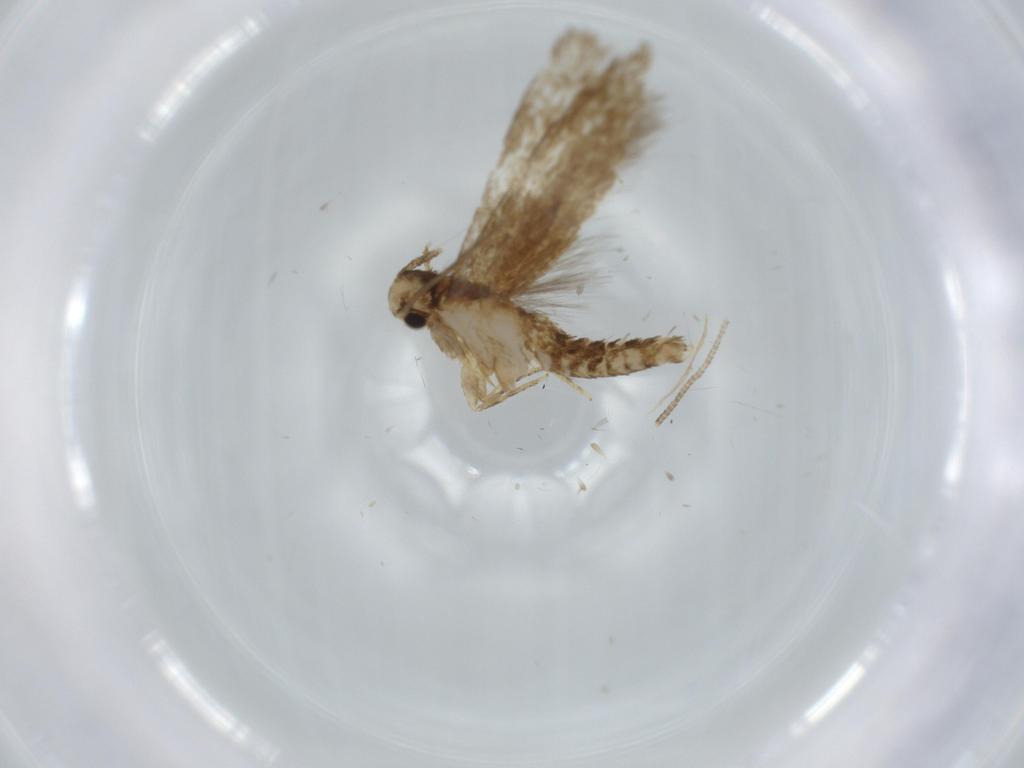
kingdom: Animalia
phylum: Arthropoda
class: Insecta
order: Lepidoptera
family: Tineidae
